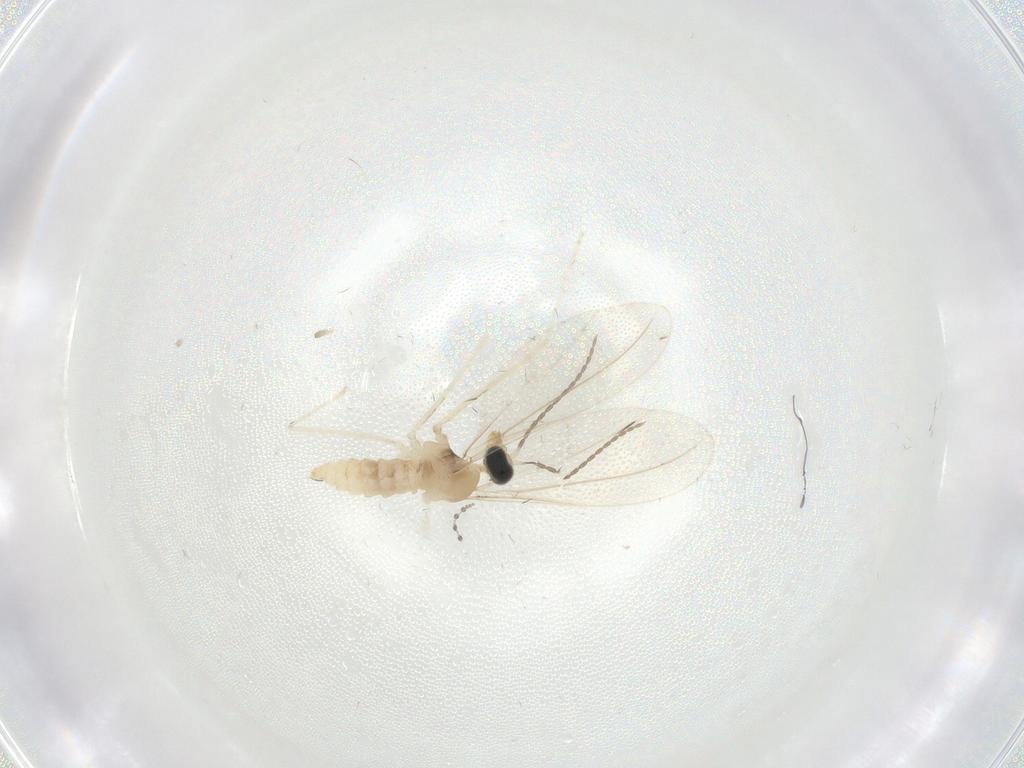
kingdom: Animalia
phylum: Arthropoda
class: Insecta
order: Diptera
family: Cecidomyiidae
